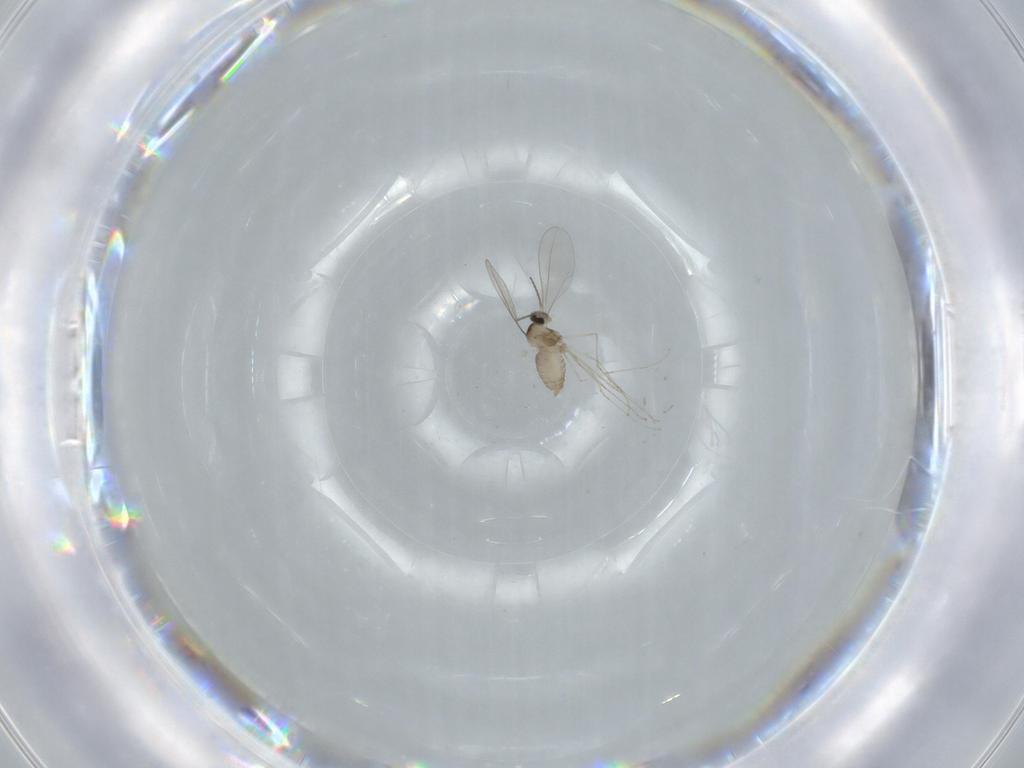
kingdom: Animalia
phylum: Arthropoda
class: Insecta
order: Diptera
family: Cecidomyiidae
